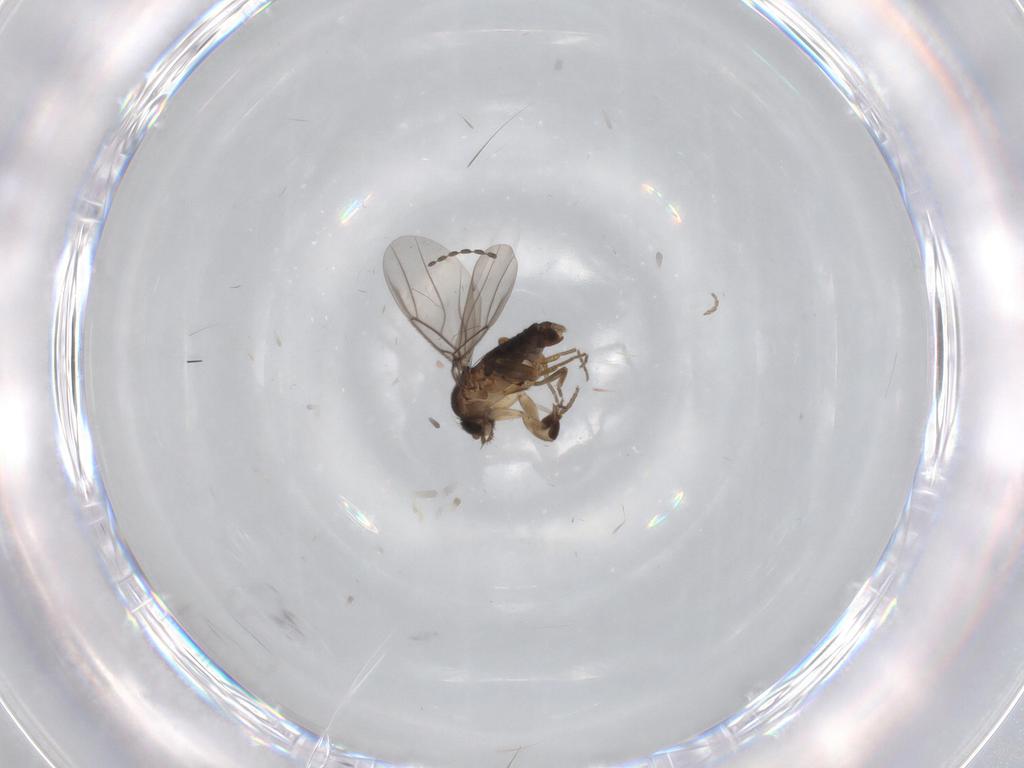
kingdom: Animalia
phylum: Arthropoda
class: Insecta
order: Diptera
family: Phoridae
